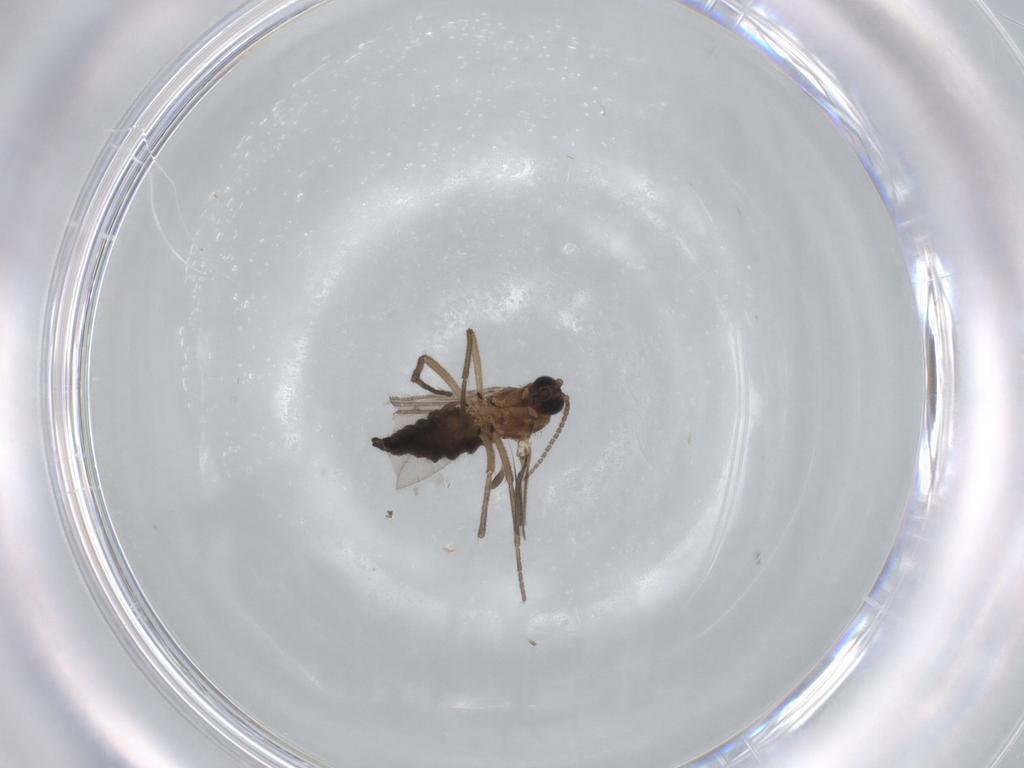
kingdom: Animalia
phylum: Arthropoda
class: Insecta
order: Diptera
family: Sciaridae
